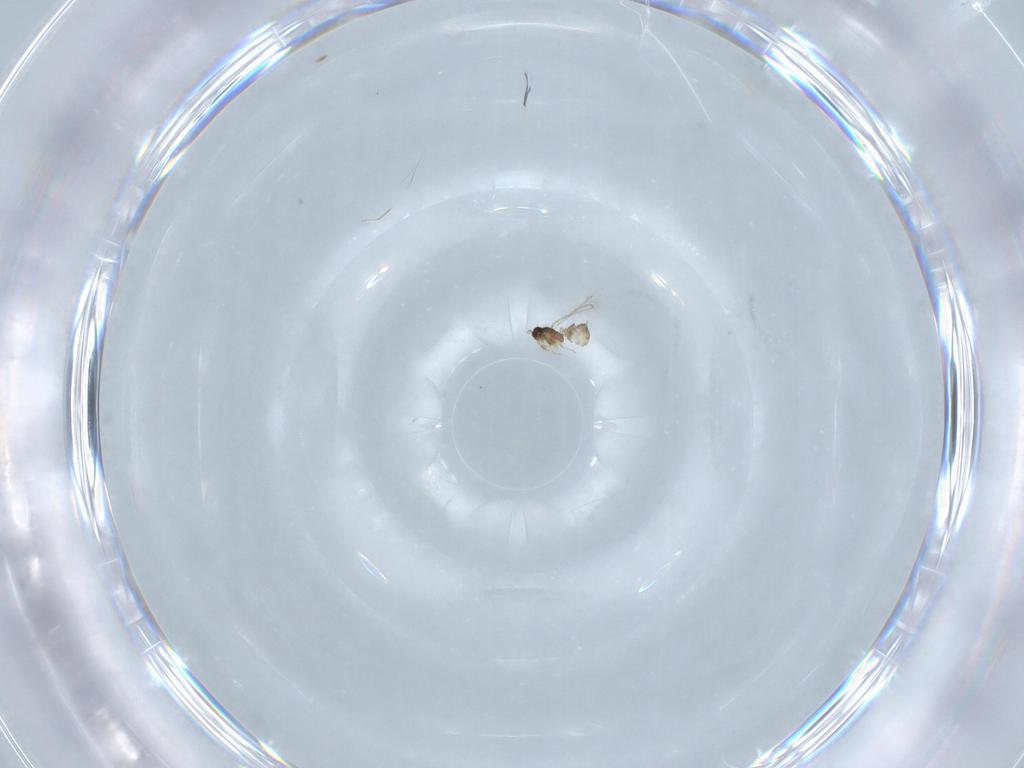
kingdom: Animalia
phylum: Arthropoda
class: Insecta
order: Hymenoptera
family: Mymaridae
